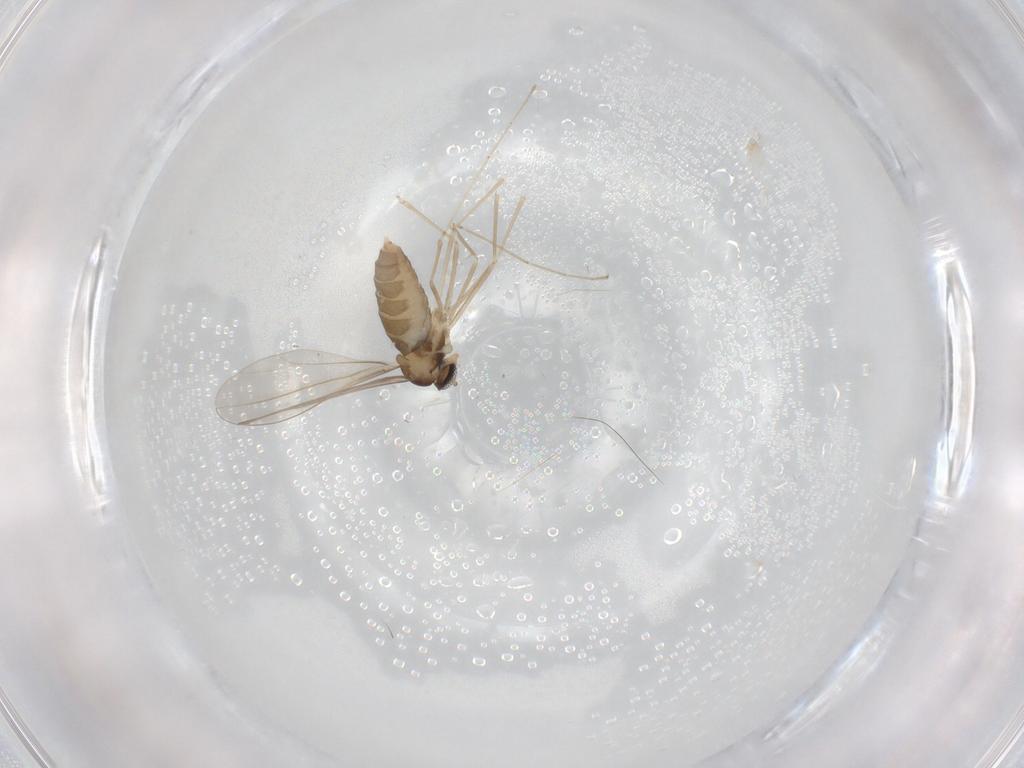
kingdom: Animalia
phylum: Arthropoda
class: Insecta
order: Diptera
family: Cecidomyiidae
